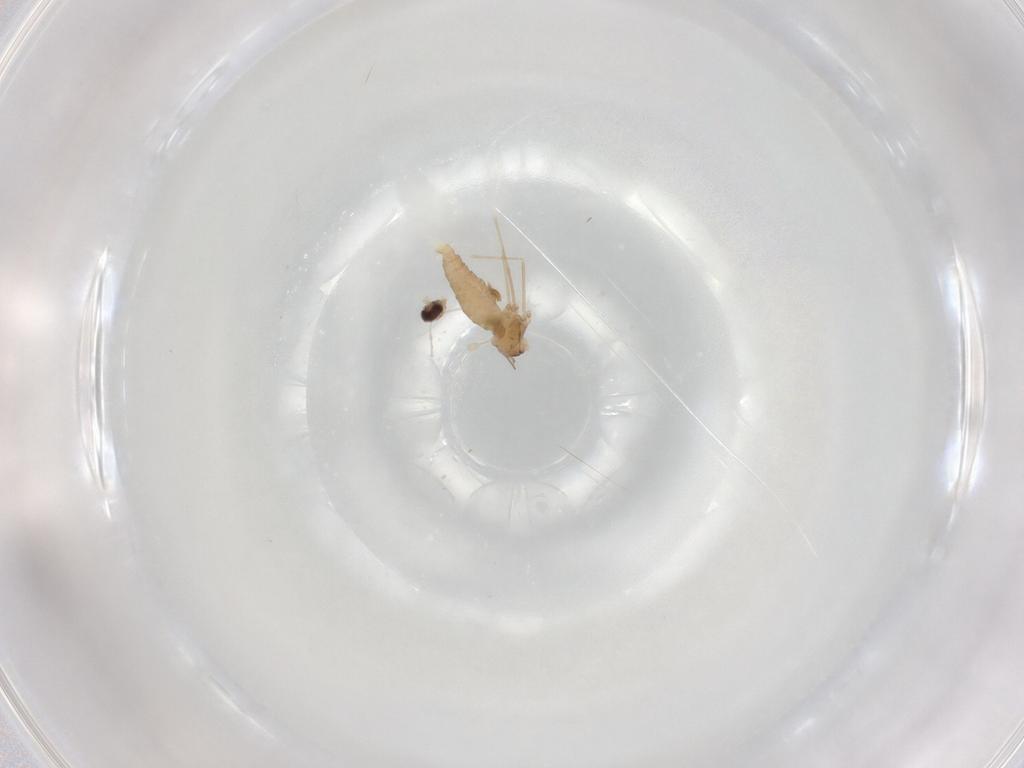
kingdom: Animalia
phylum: Arthropoda
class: Insecta
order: Diptera
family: Cecidomyiidae
